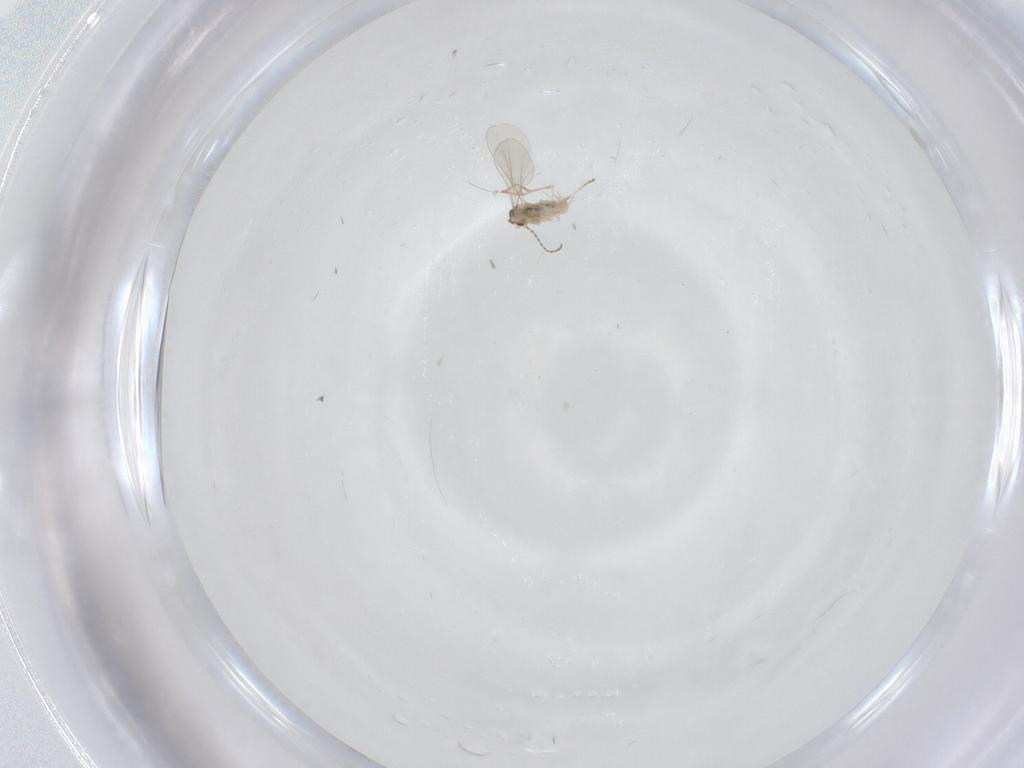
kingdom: Animalia
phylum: Arthropoda
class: Insecta
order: Diptera
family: Cecidomyiidae
